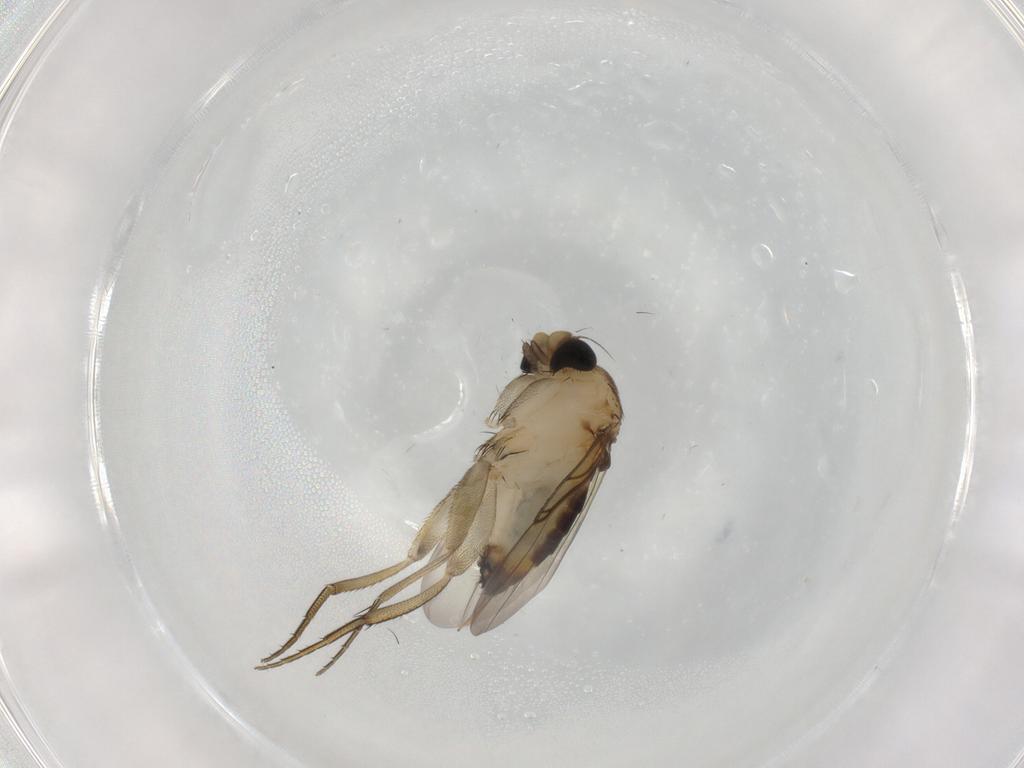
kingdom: Animalia
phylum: Arthropoda
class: Insecta
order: Diptera
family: Phoridae
